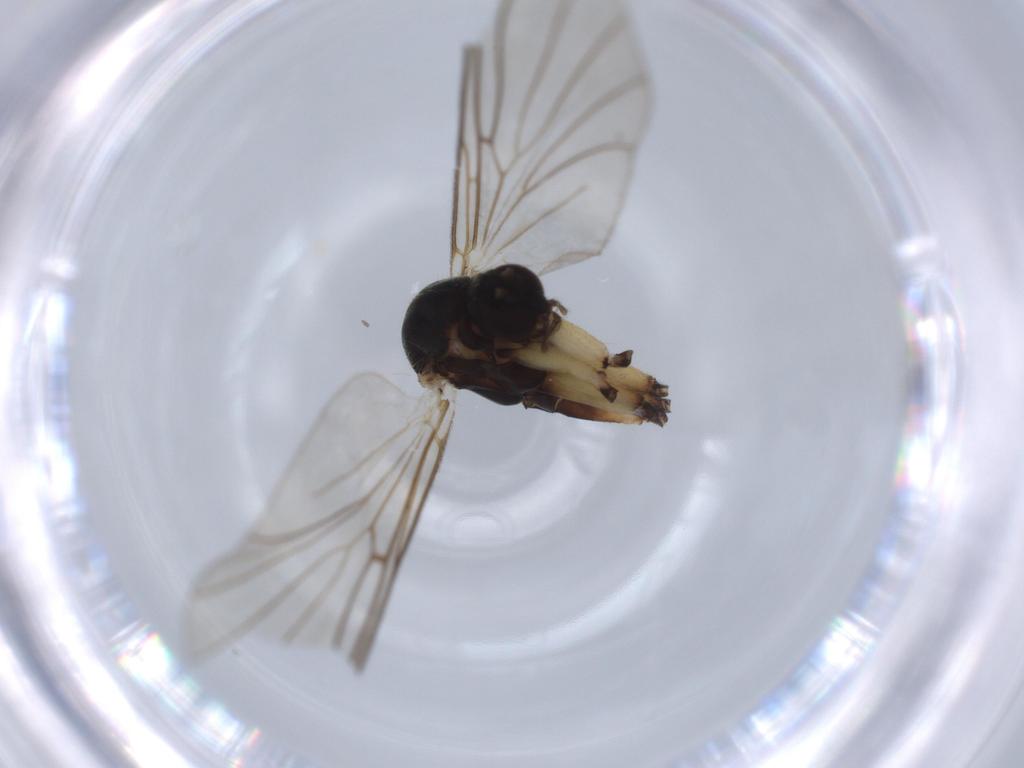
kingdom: Animalia
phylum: Arthropoda
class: Insecta
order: Diptera
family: Muscidae
